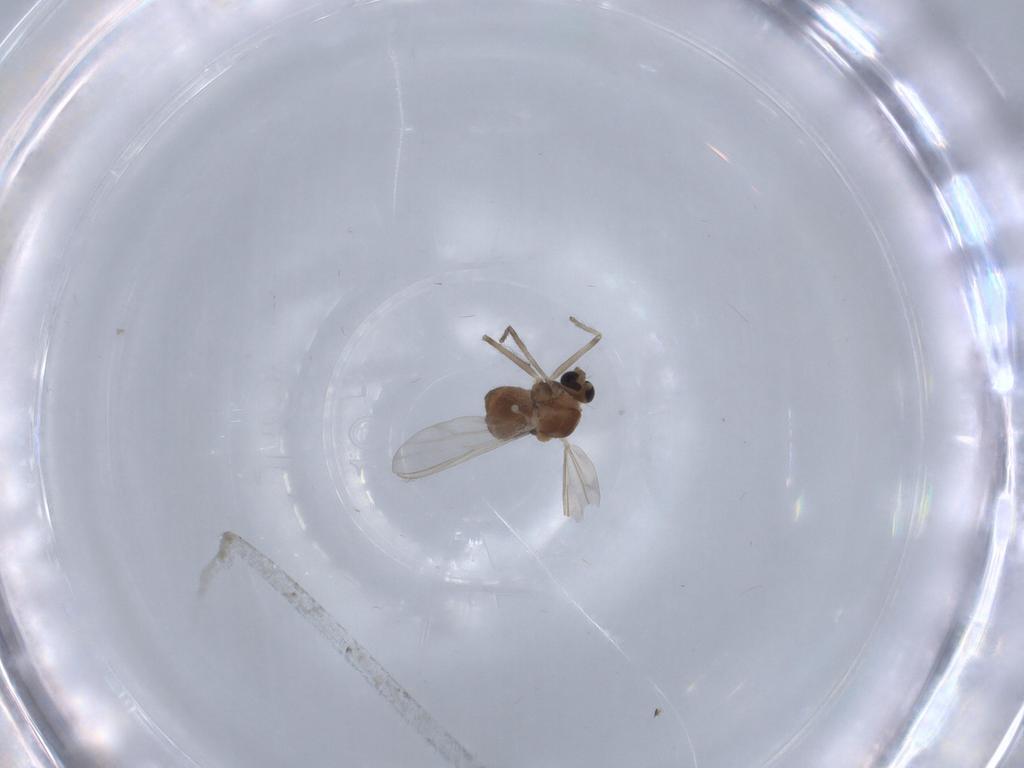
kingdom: Animalia
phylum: Arthropoda
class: Insecta
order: Diptera
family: Chironomidae
